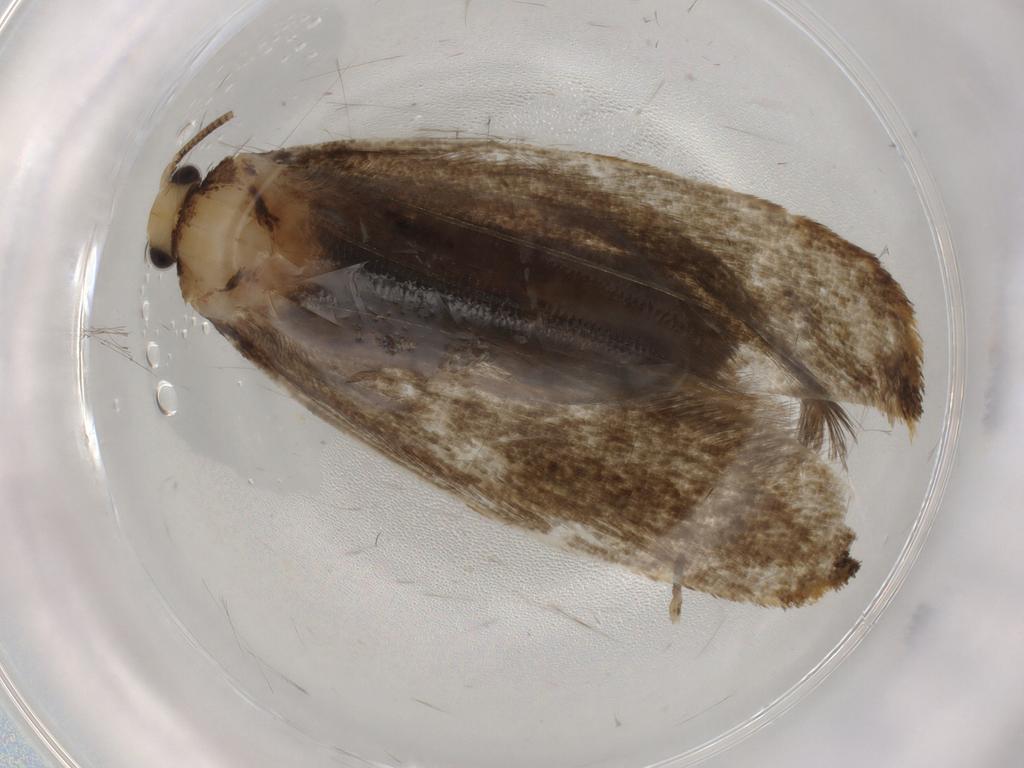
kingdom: Animalia
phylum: Arthropoda
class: Insecta
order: Lepidoptera
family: Tineidae
